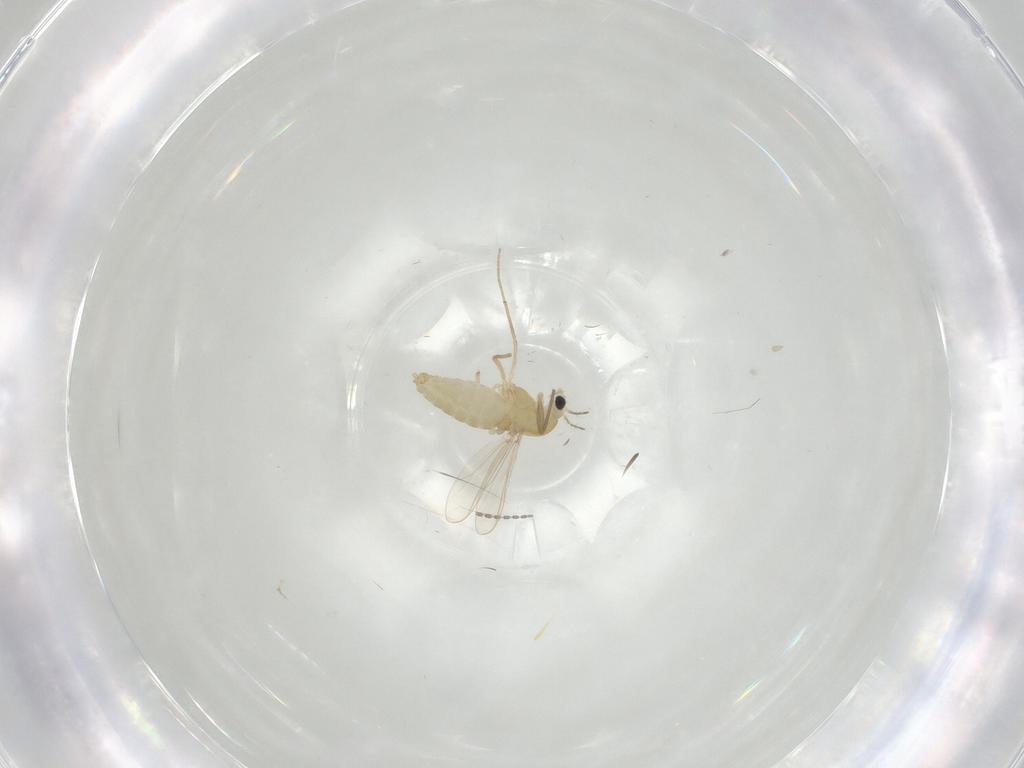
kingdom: Animalia
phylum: Arthropoda
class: Insecta
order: Diptera
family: Chironomidae
